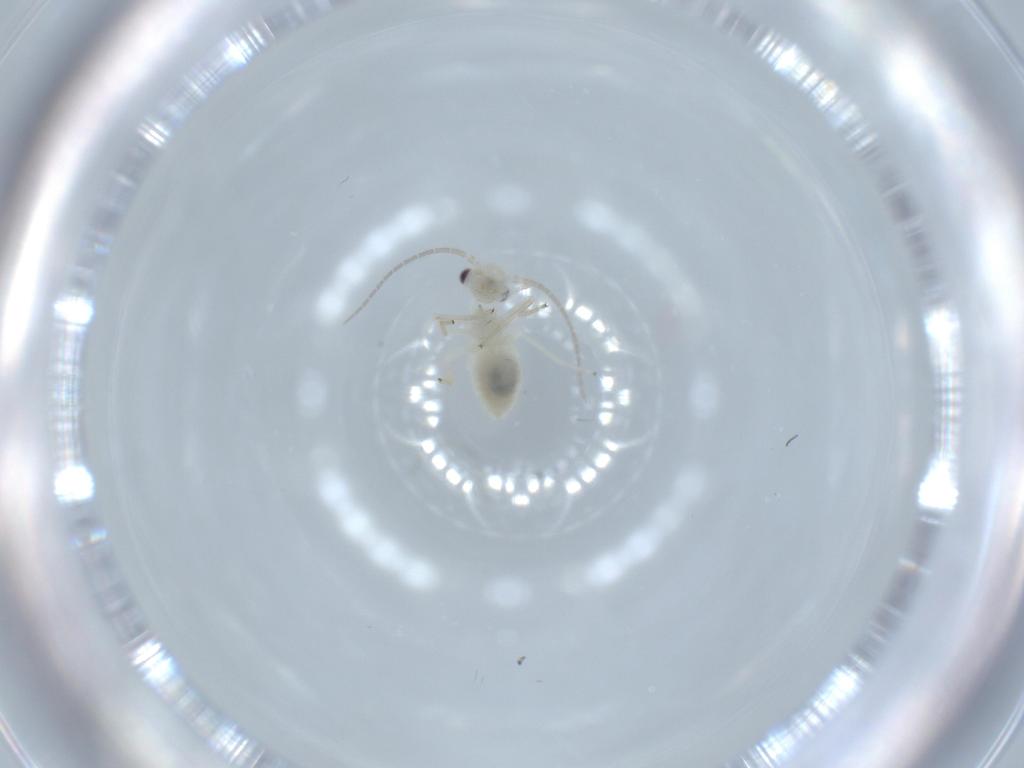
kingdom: Animalia
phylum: Arthropoda
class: Insecta
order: Psocodea
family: Caeciliusidae
